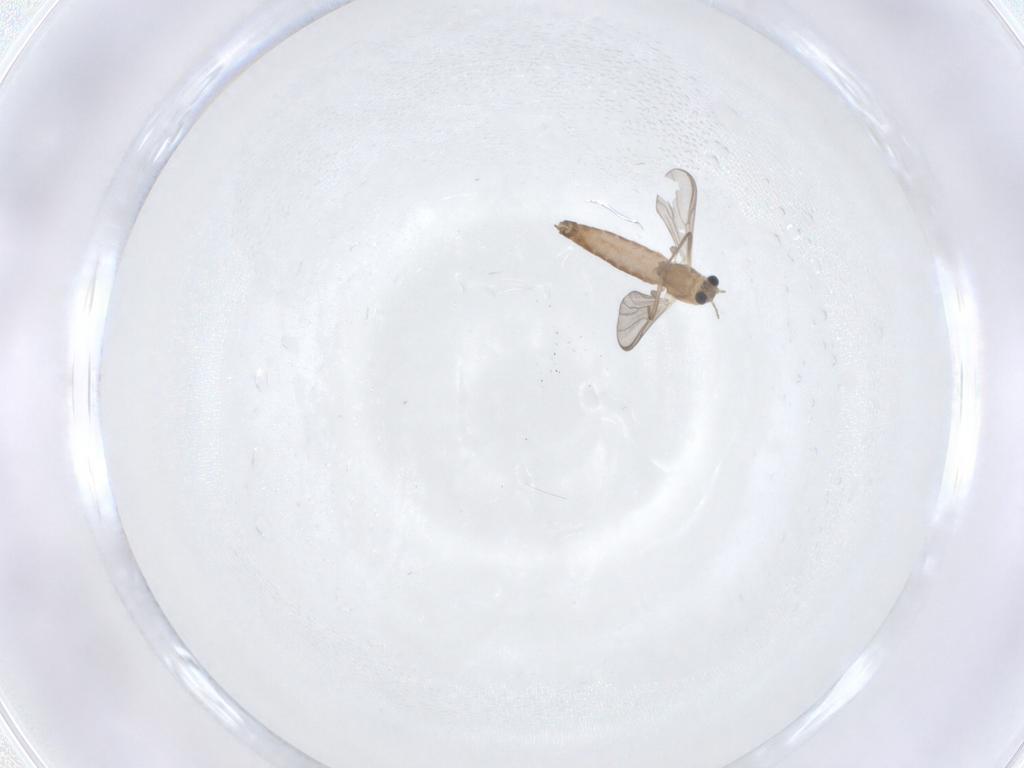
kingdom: Animalia
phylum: Arthropoda
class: Insecta
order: Diptera
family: Chironomidae
